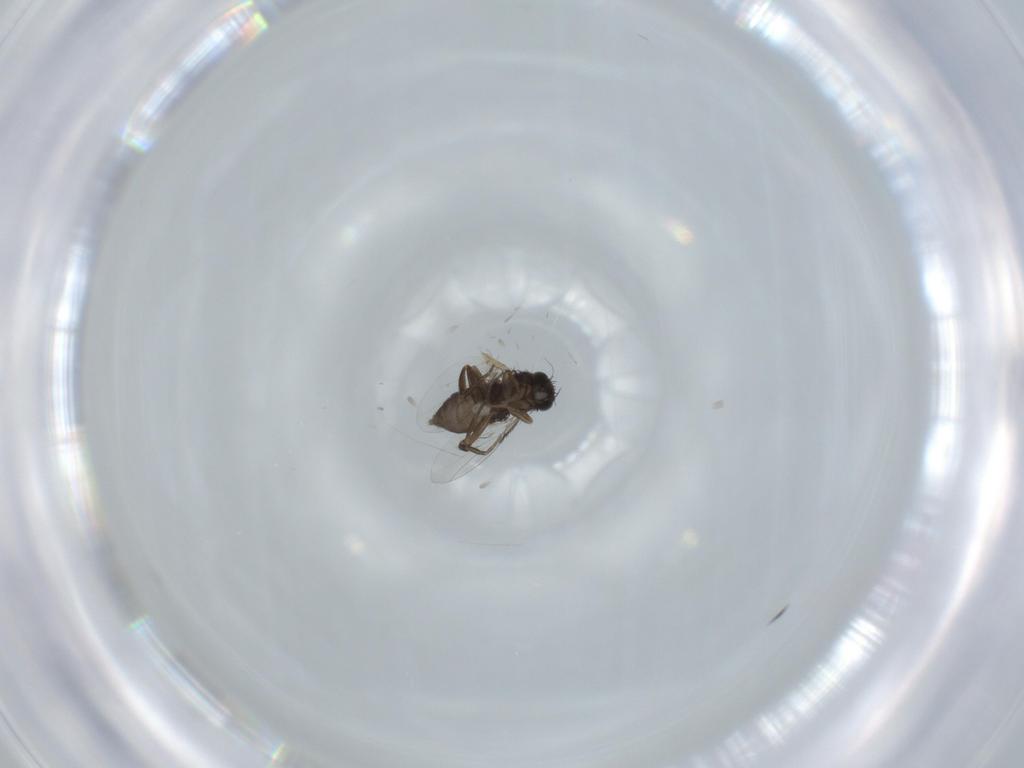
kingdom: Animalia
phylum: Arthropoda
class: Insecta
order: Diptera
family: Phoridae
